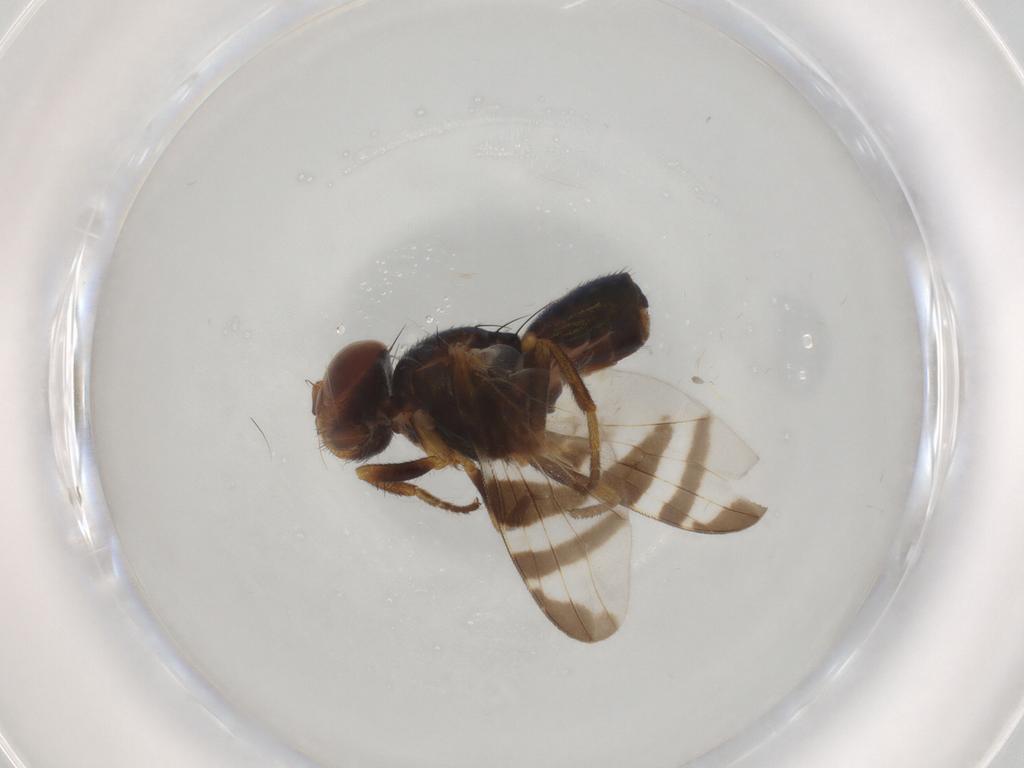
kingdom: Animalia
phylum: Arthropoda
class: Insecta
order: Diptera
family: Platystomatidae
